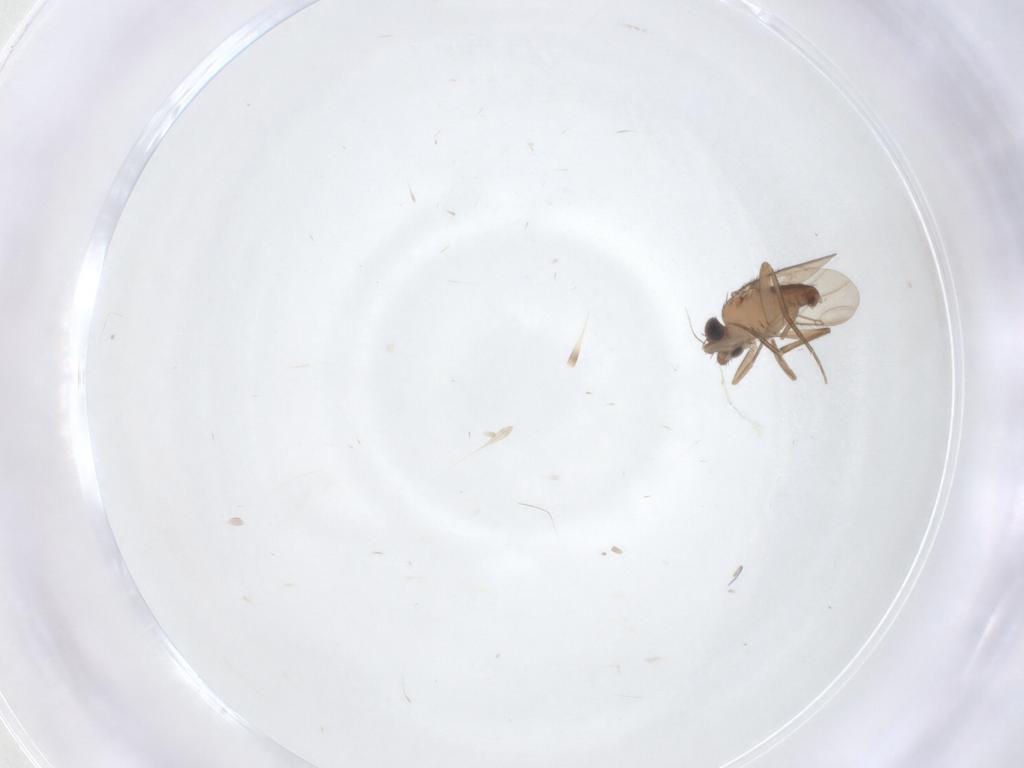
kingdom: Animalia
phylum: Arthropoda
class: Insecta
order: Diptera
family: Phoridae
